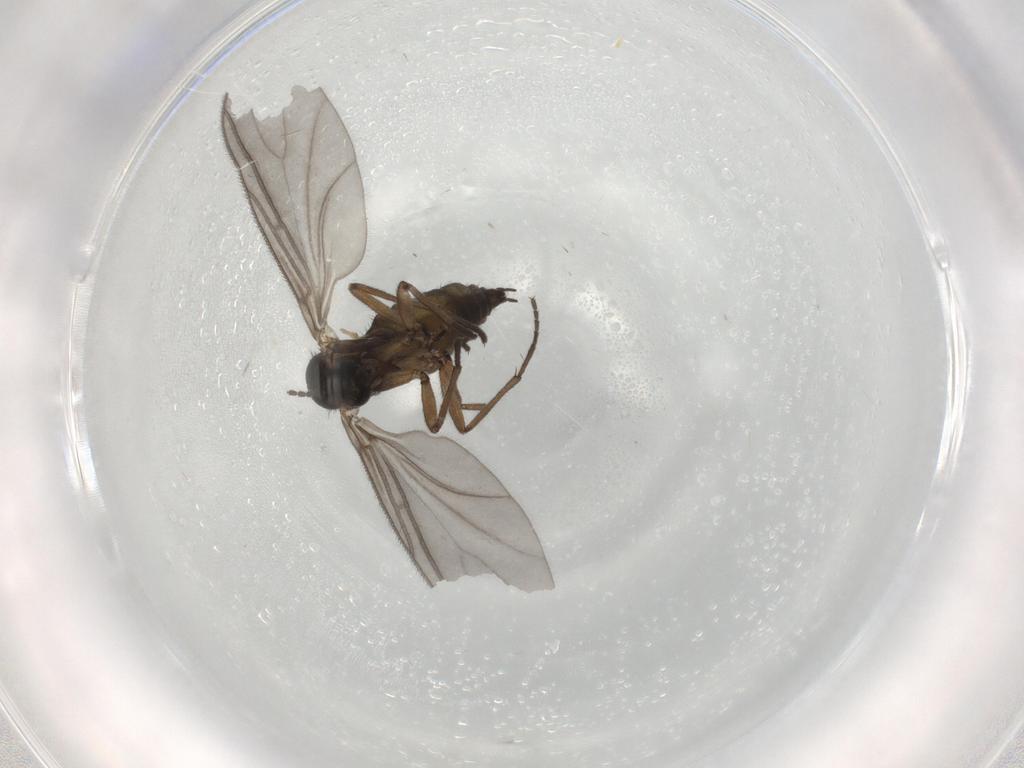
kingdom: Animalia
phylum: Arthropoda
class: Insecta
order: Diptera
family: Sciaridae
